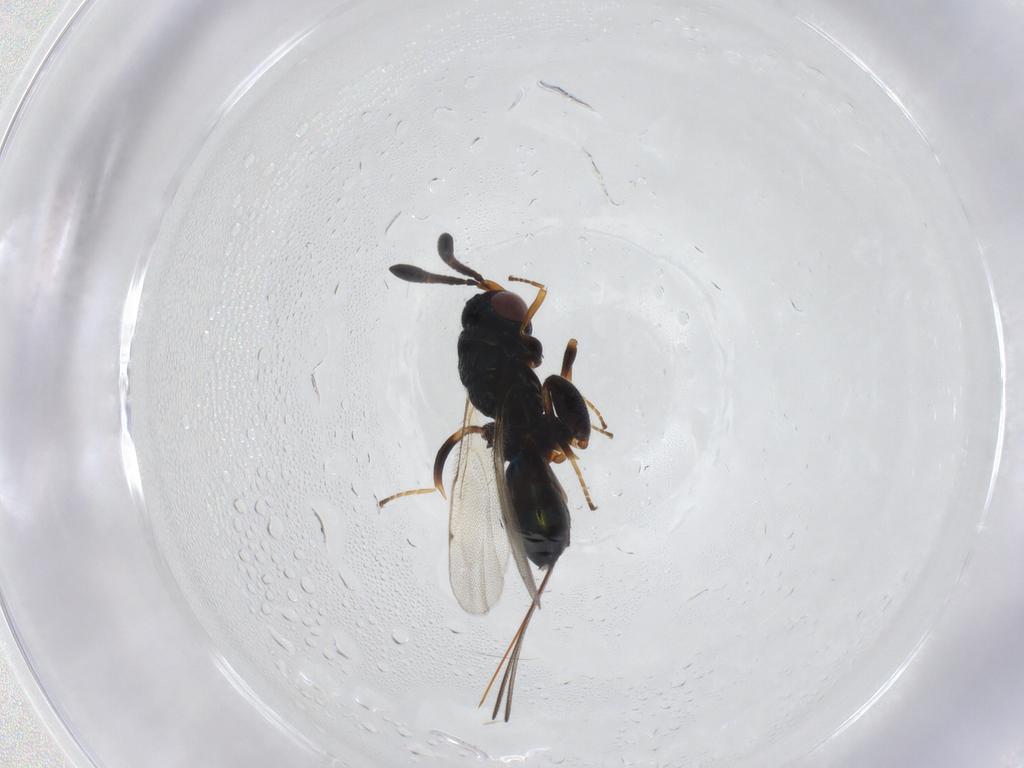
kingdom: Animalia
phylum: Arthropoda
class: Insecta
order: Hymenoptera
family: Torymidae
